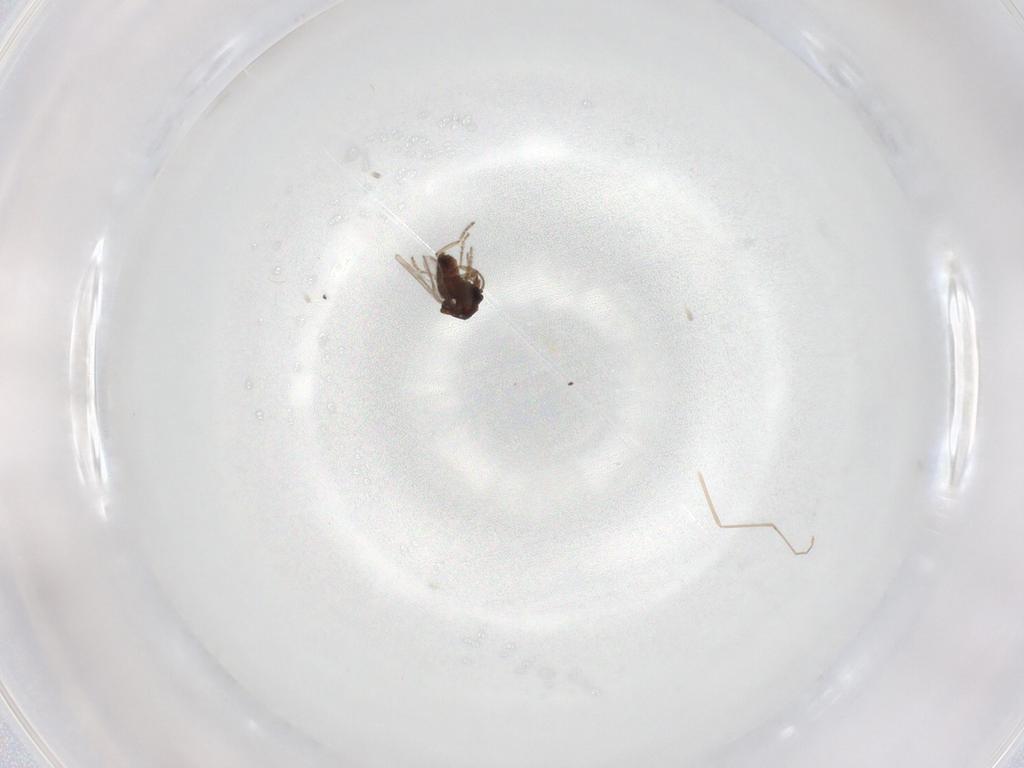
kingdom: Animalia
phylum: Arthropoda
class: Insecta
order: Diptera
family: Ceratopogonidae
